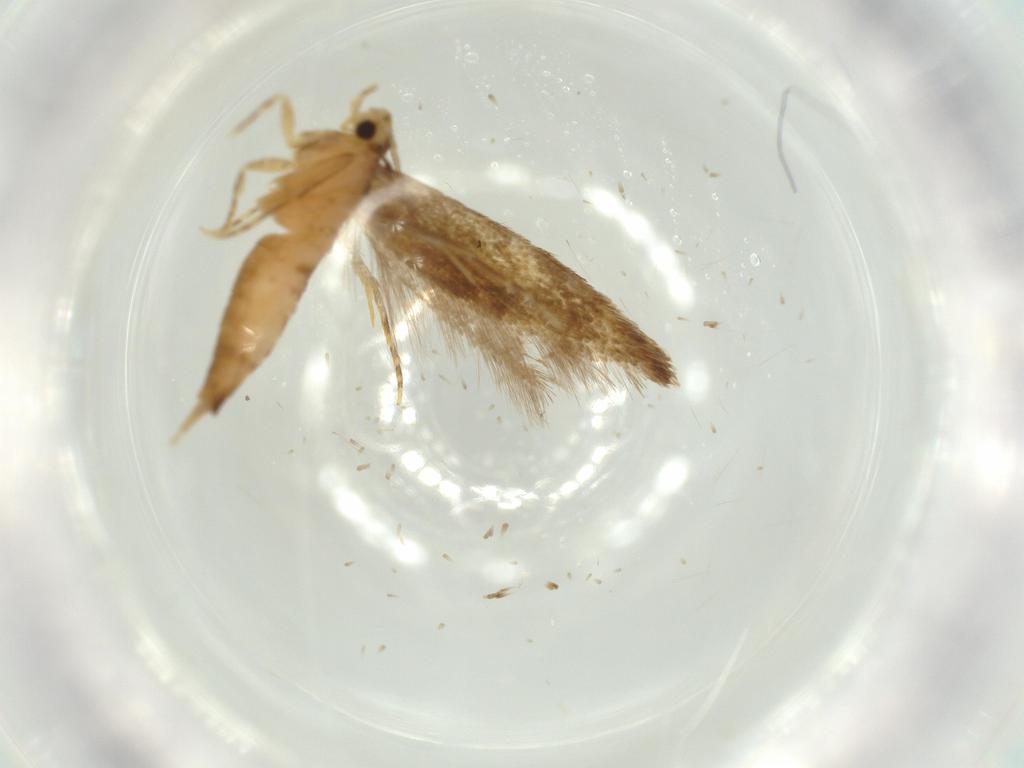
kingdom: Animalia
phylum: Arthropoda
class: Insecta
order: Lepidoptera
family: Tineidae
